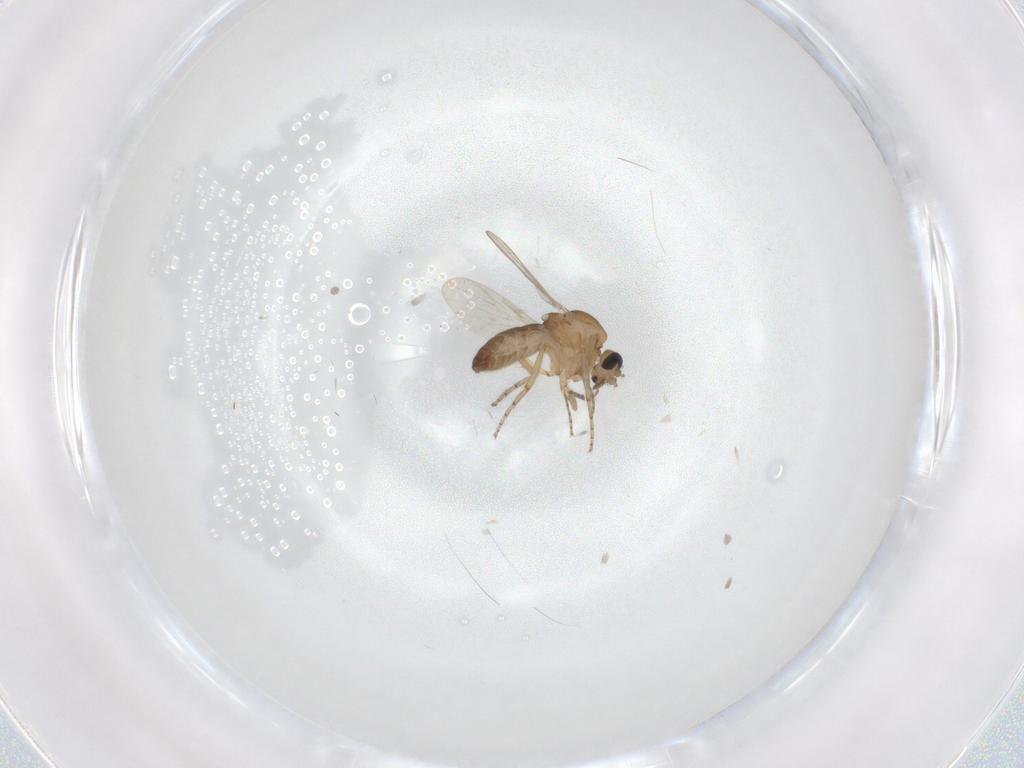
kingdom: Animalia
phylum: Arthropoda
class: Insecta
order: Diptera
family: Ceratopogonidae
